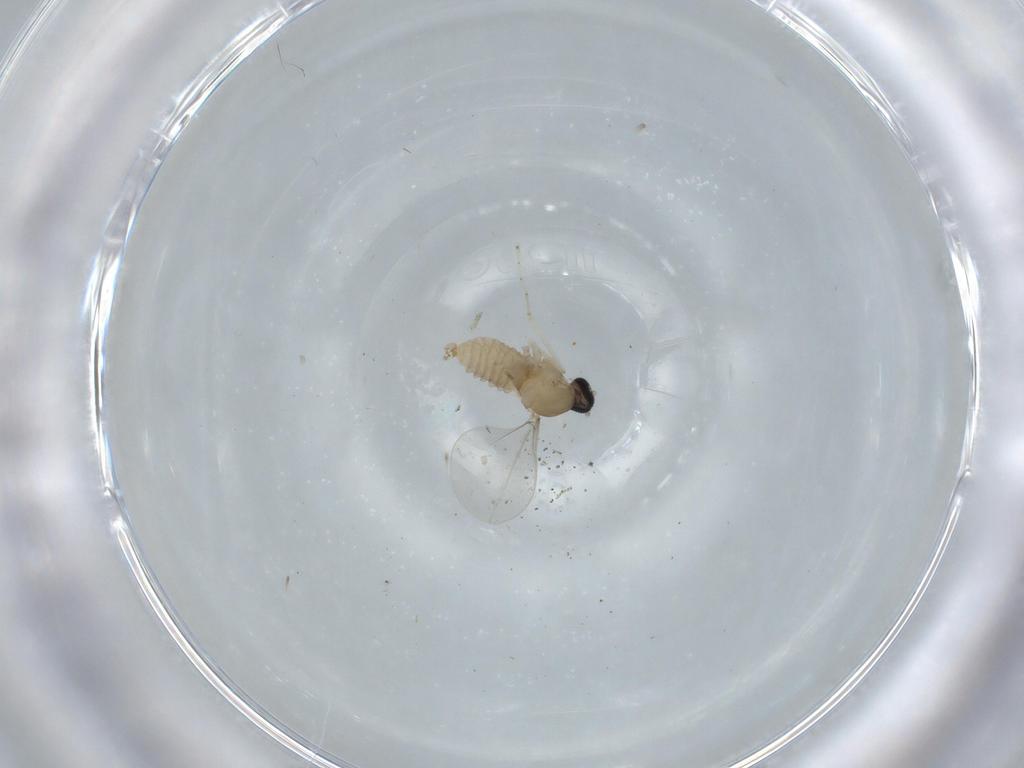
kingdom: Animalia
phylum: Arthropoda
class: Insecta
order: Diptera
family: Cecidomyiidae
